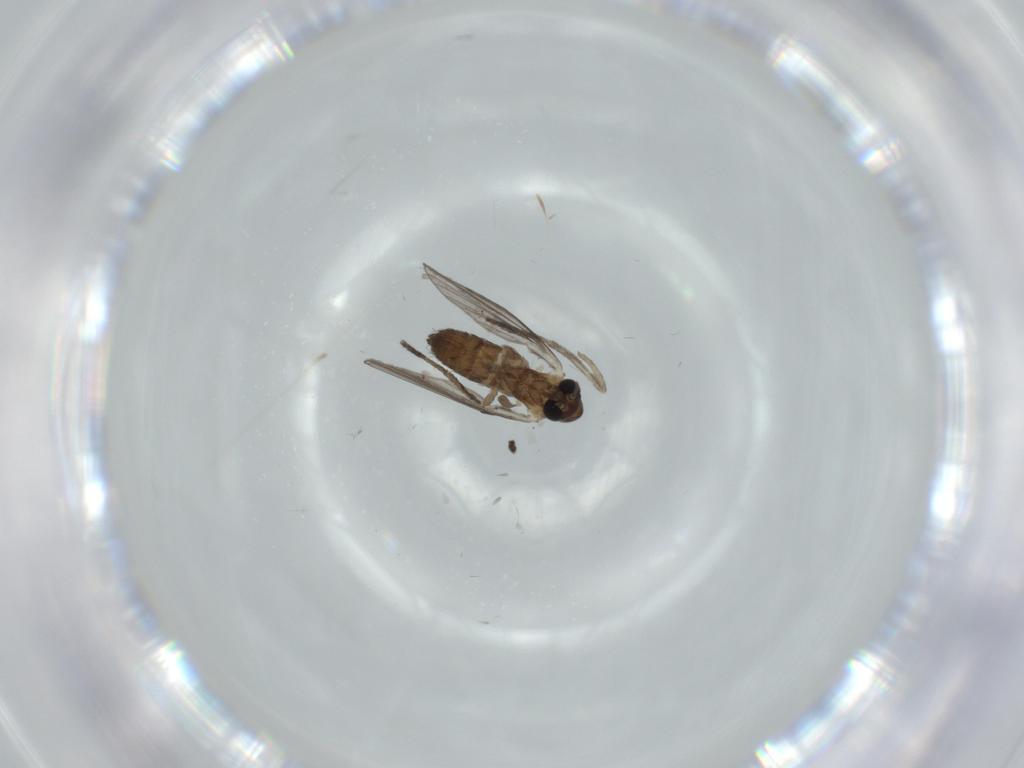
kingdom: Animalia
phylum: Arthropoda
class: Insecta
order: Diptera
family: Psychodidae
